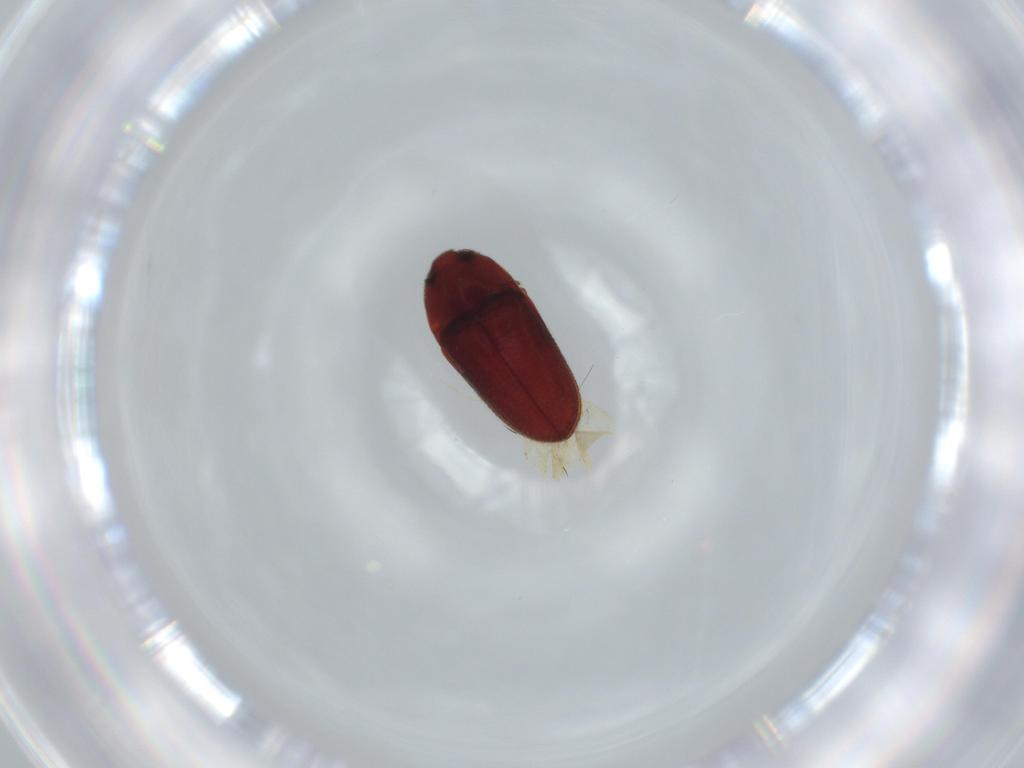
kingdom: Animalia
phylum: Arthropoda
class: Insecta
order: Coleoptera
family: Throscidae
